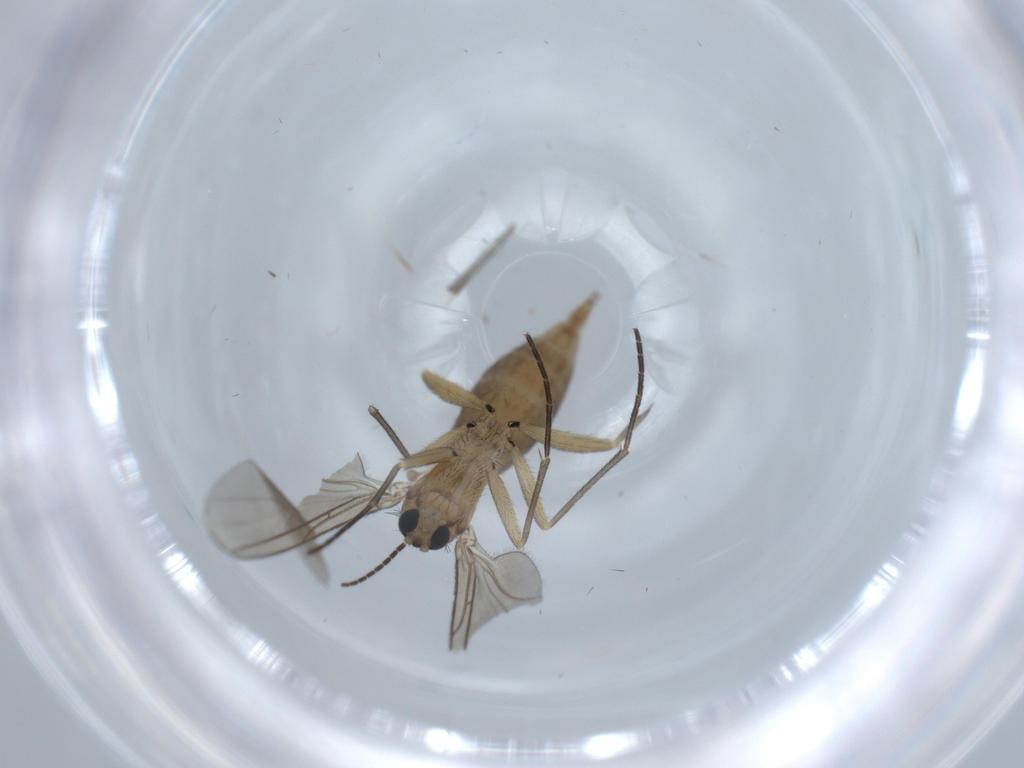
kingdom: Animalia
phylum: Arthropoda
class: Insecta
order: Diptera
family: Sciaridae
